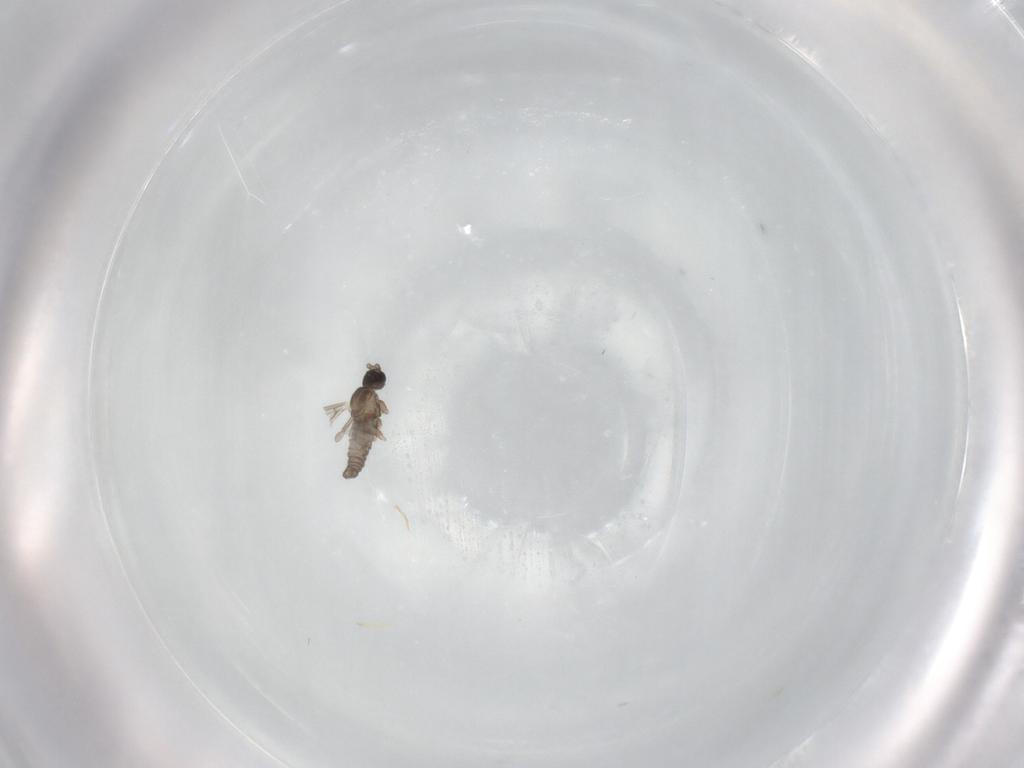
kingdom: Animalia
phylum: Arthropoda
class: Insecta
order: Diptera
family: Cecidomyiidae
